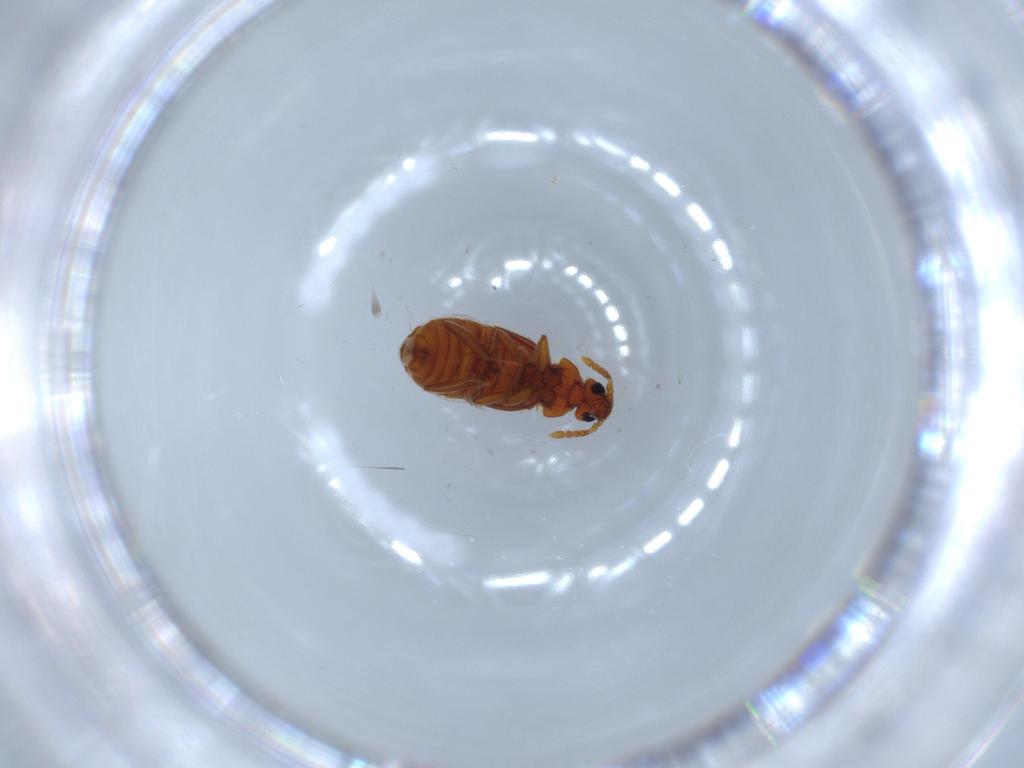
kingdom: Animalia
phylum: Arthropoda
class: Insecta
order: Coleoptera
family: Staphylinidae
